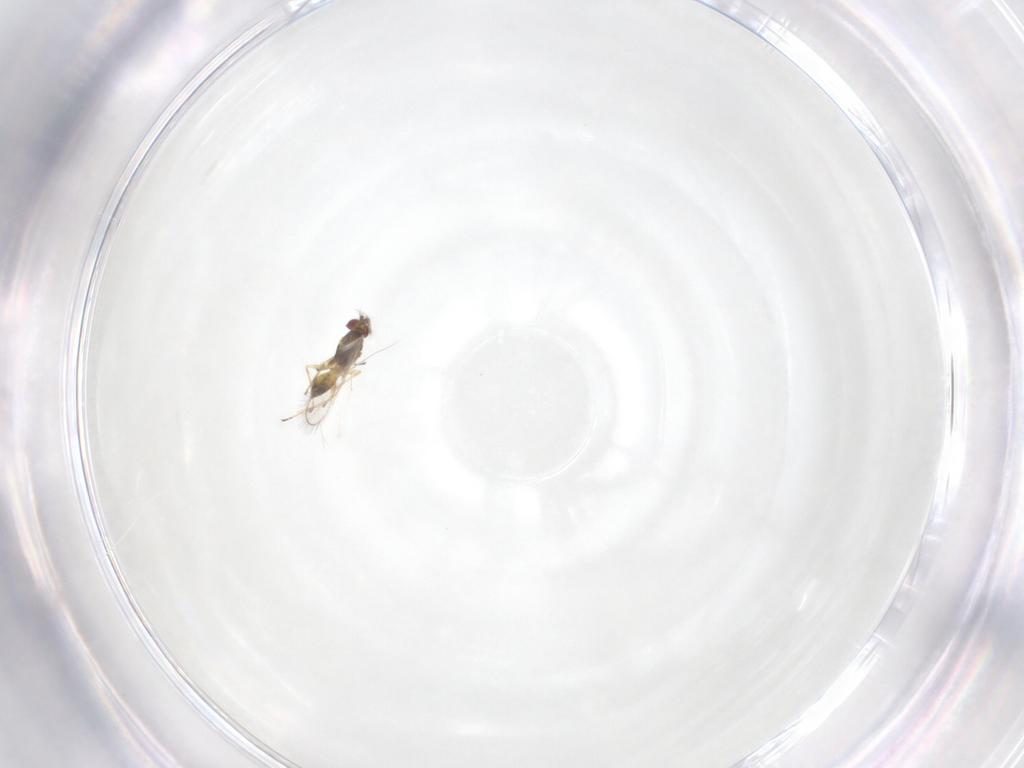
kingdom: Animalia
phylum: Arthropoda
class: Insecta
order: Hymenoptera
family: Eulophidae
